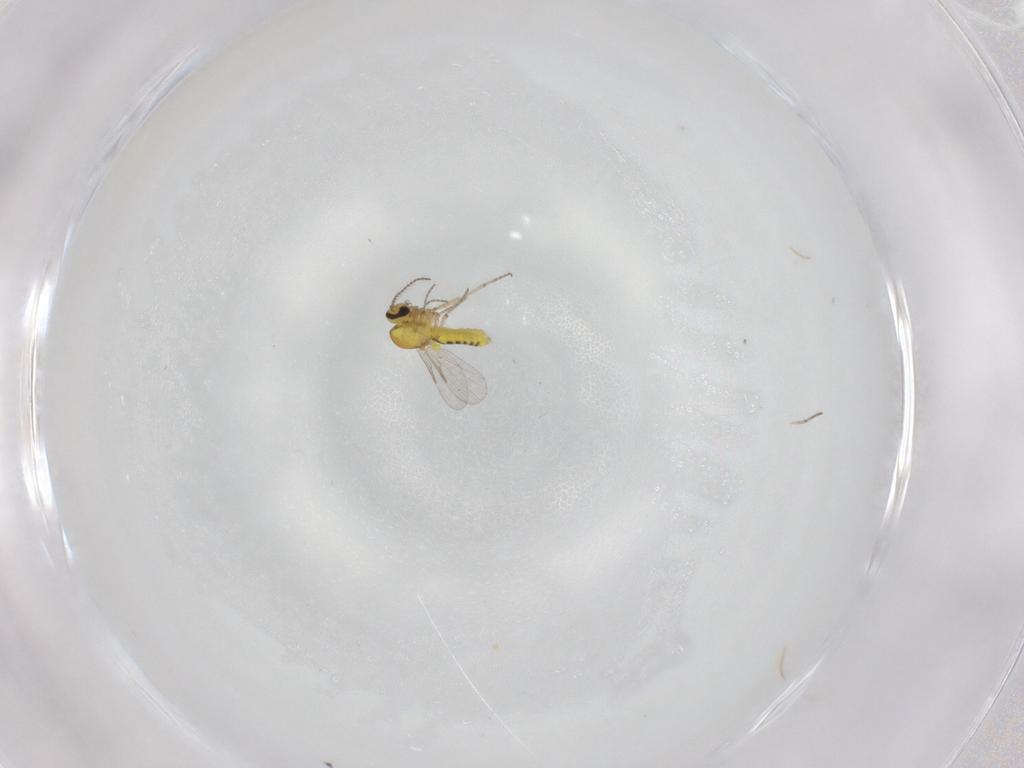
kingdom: Animalia
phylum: Arthropoda
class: Insecta
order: Diptera
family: Ceratopogonidae
